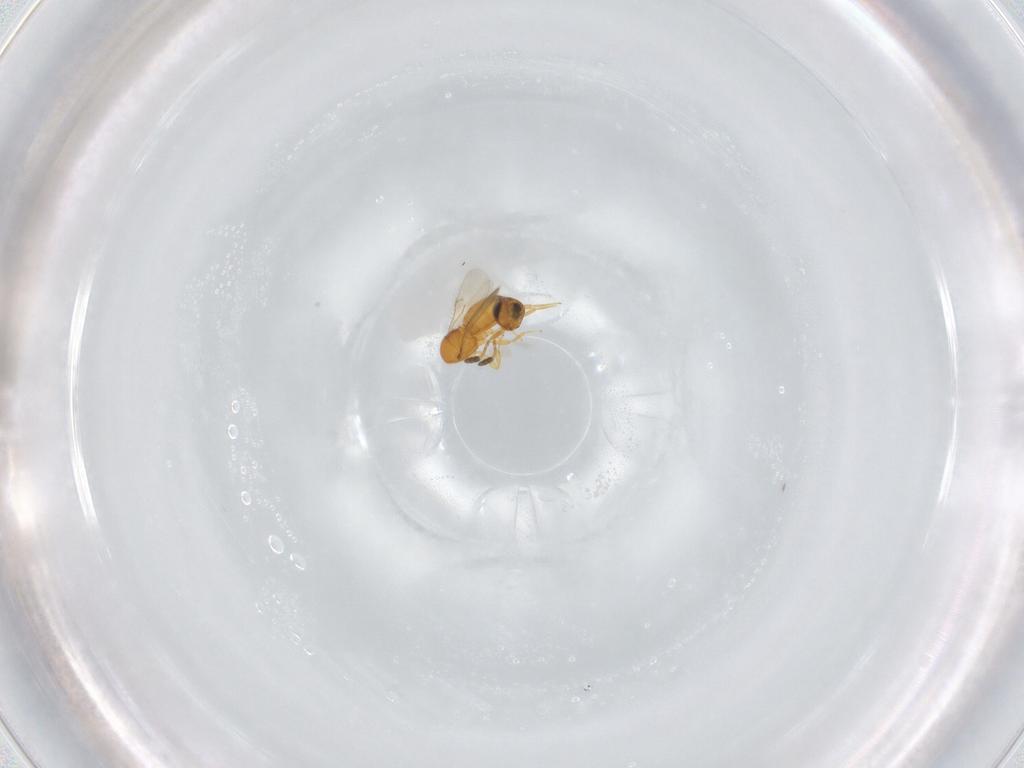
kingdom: Animalia
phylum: Arthropoda
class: Insecta
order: Hymenoptera
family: Scelionidae
